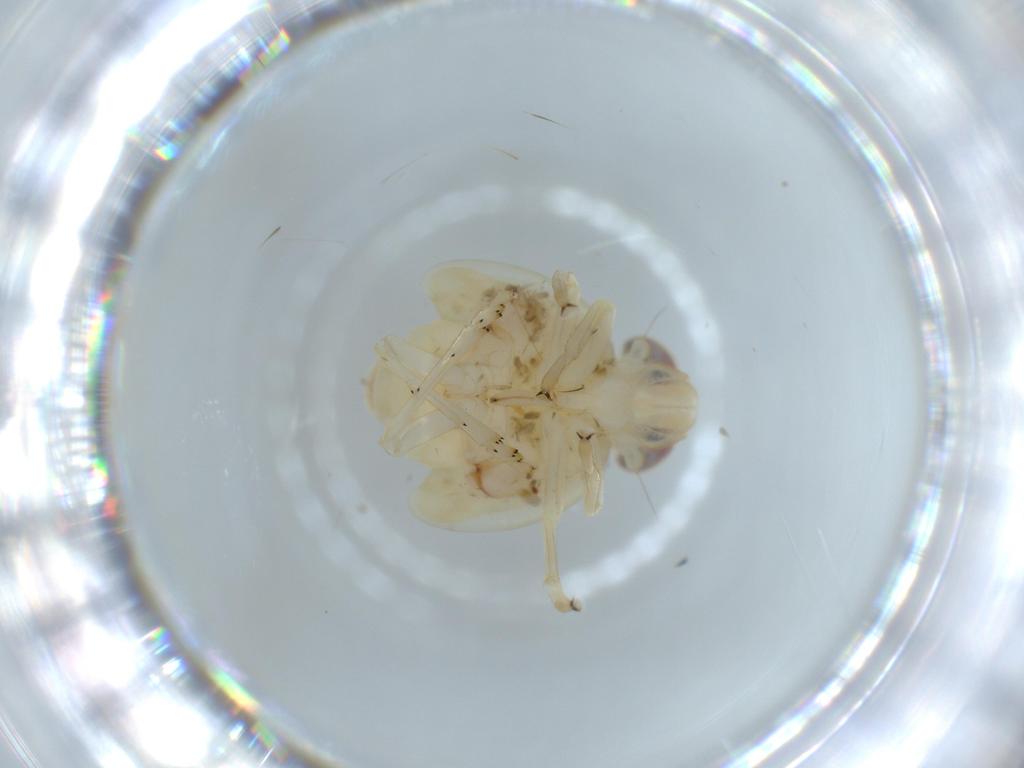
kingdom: Animalia
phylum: Arthropoda
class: Insecta
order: Hemiptera
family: Nogodinidae
